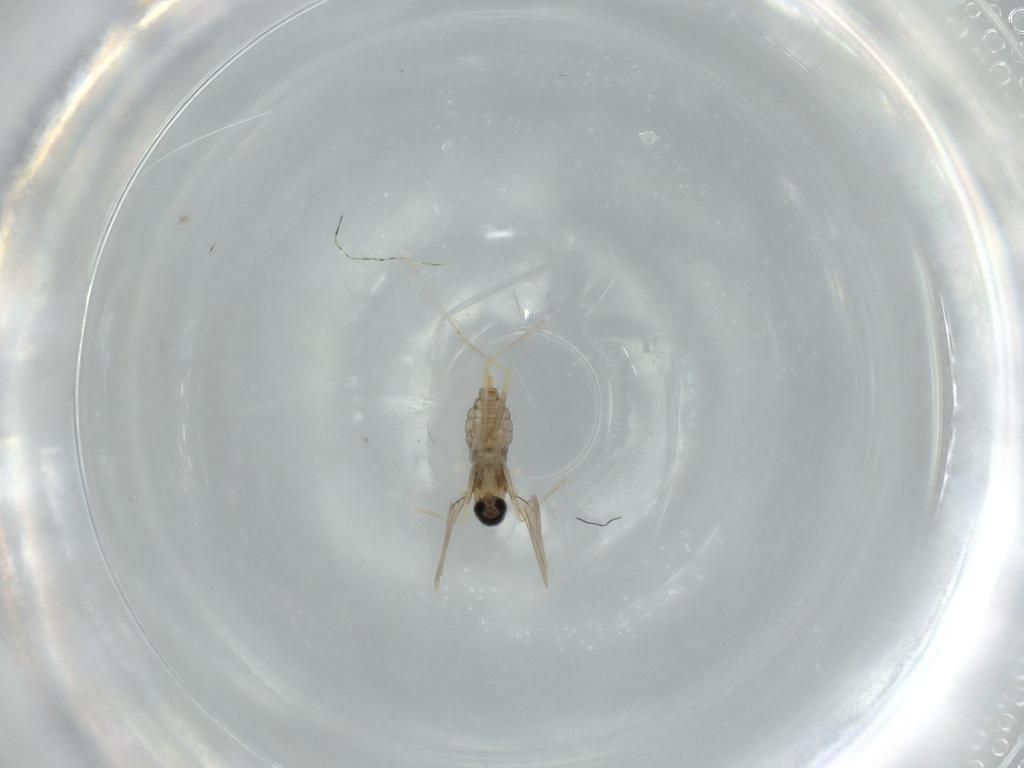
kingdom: Animalia
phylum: Arthropoda
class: Insecta
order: Diptera
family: Cecidomyiidae
